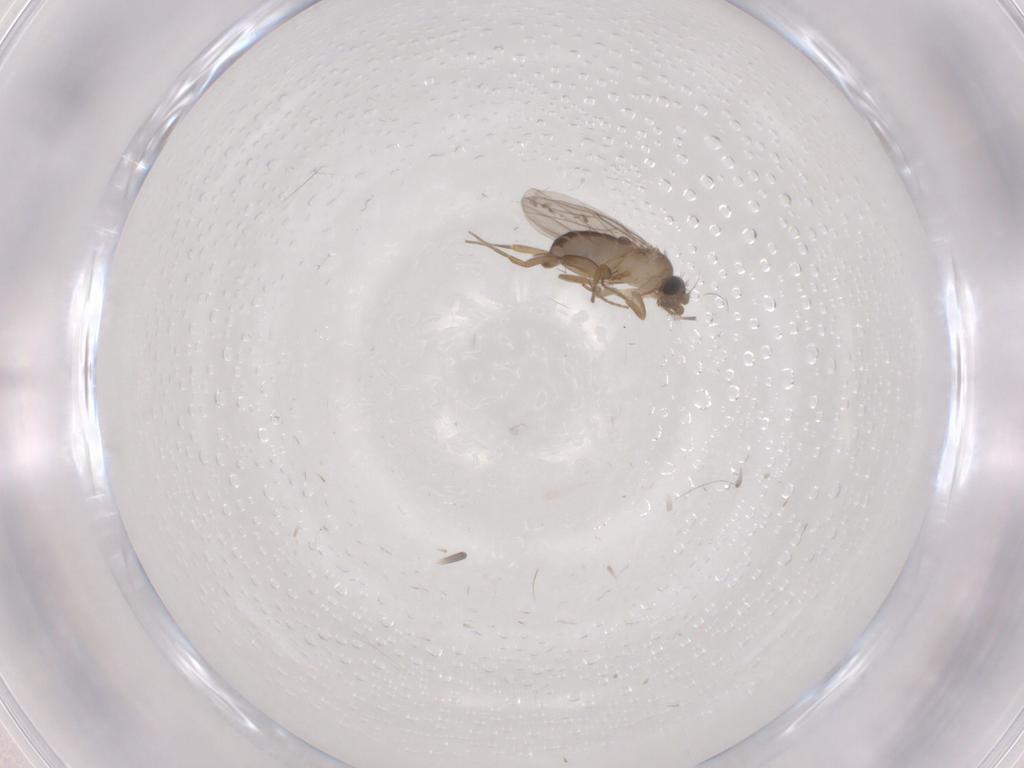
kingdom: Animalia
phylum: Arthropoda
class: Insecta
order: Diptera
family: Phoridae
